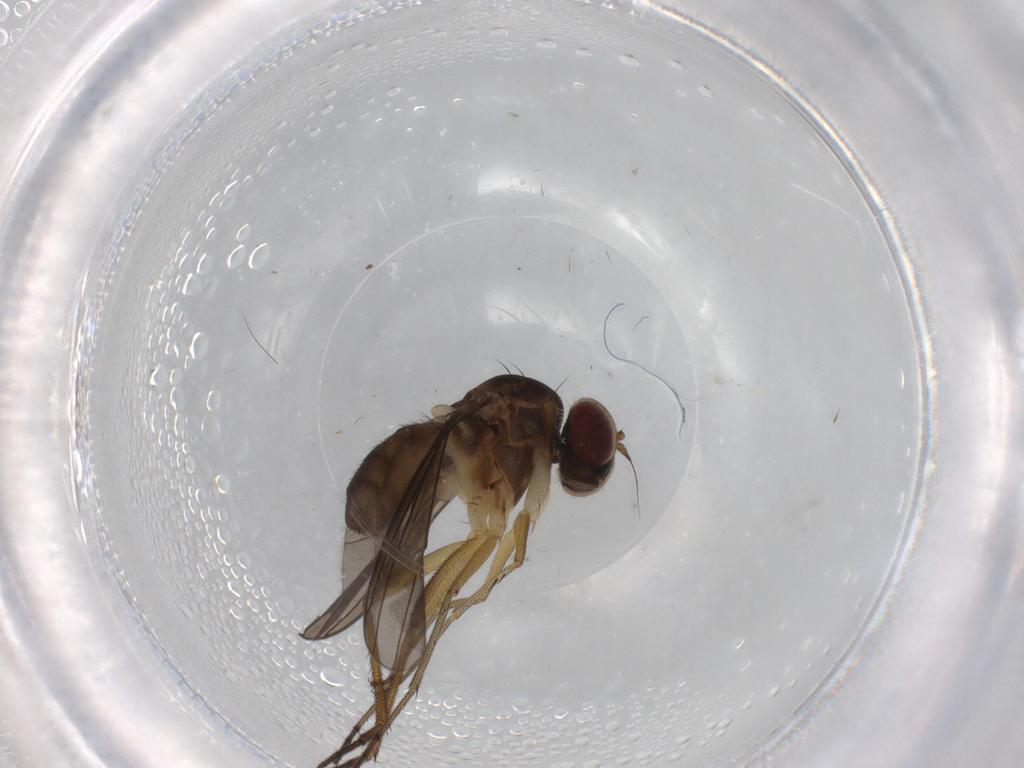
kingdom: Animalia
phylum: Arthropoda
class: Insecta
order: Diptera
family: Dolichopodidae
